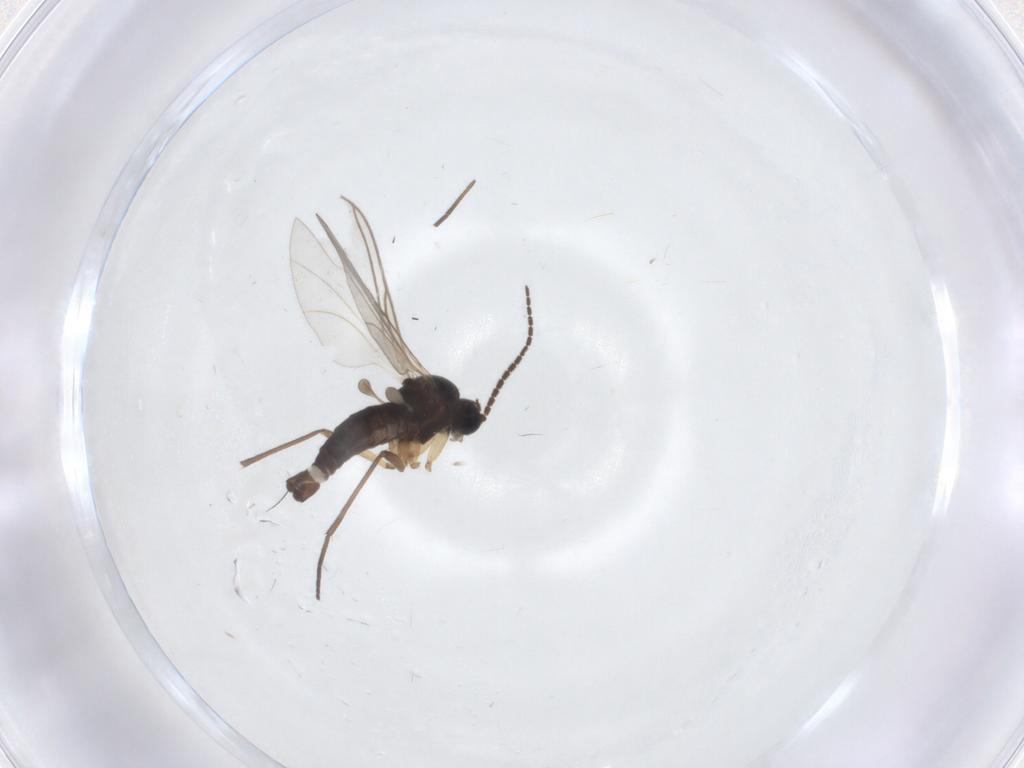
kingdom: Animalia
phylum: Arthropoda
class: Insecta
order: Diptera
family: Sciaridae
